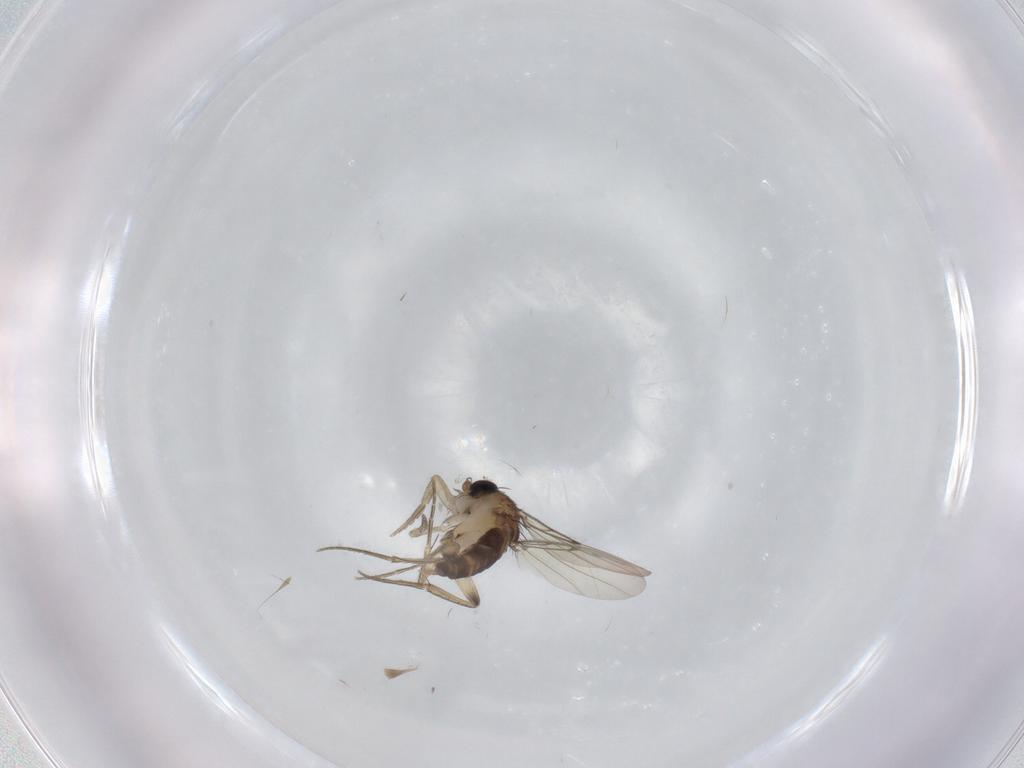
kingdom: Animalia
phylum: Arthropoda
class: Insecta
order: Diptera
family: Phoridae
